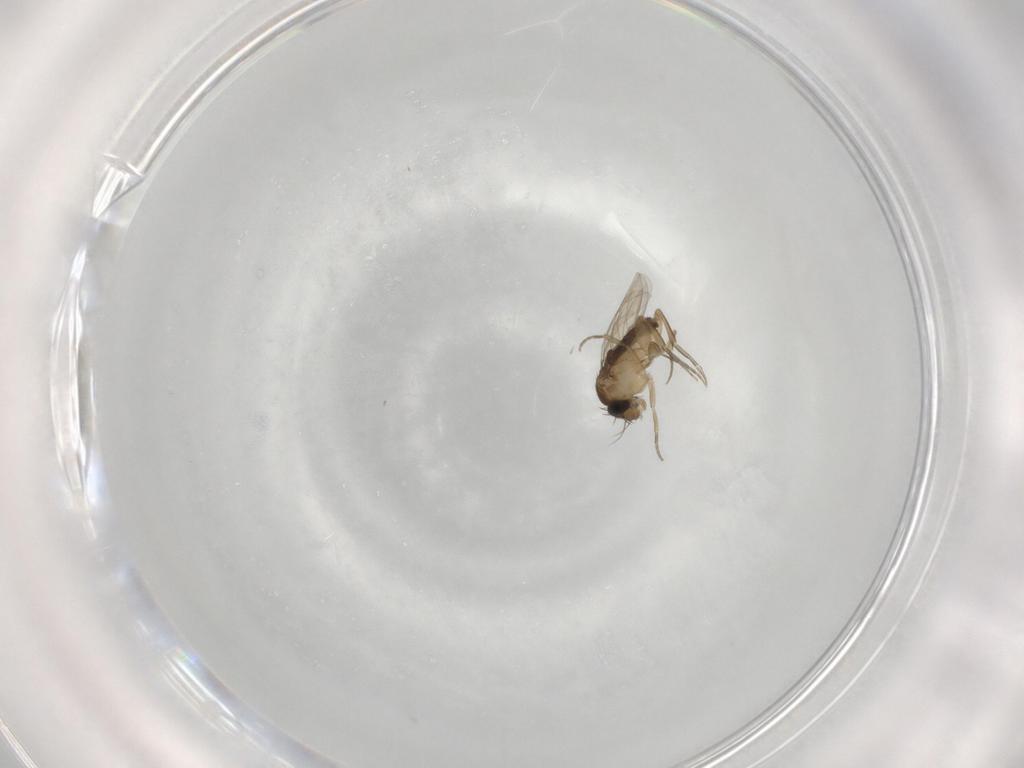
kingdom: Animalia
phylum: Arthropoda
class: Insecta
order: Diptera
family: Phoridae
